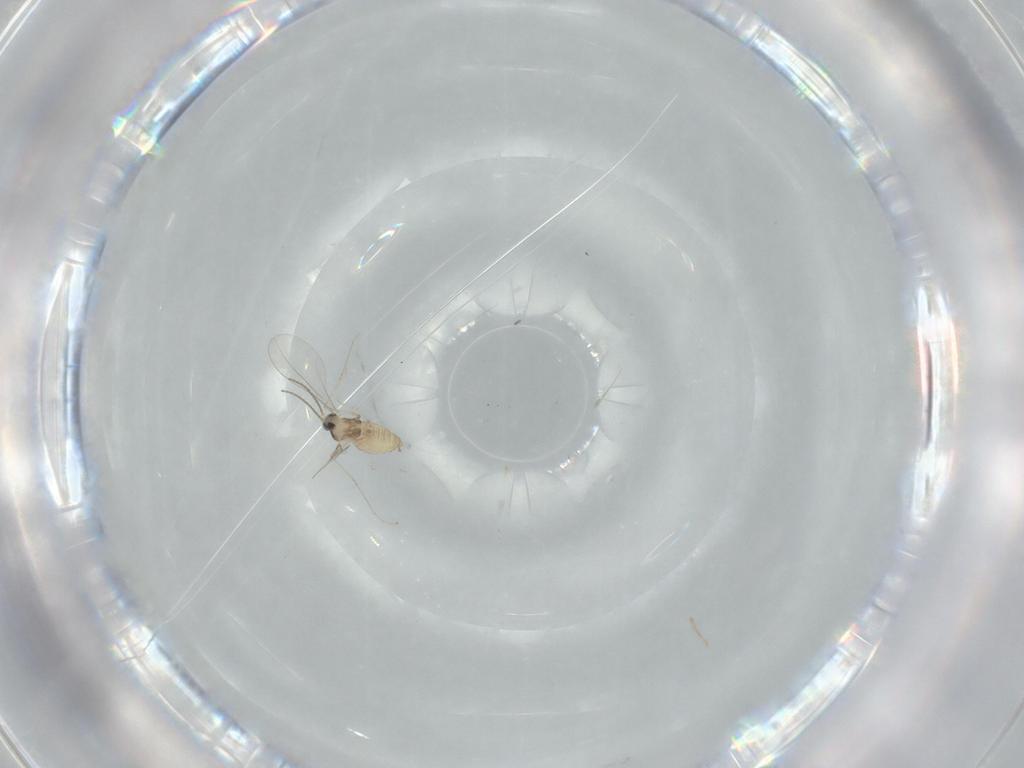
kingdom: Animalia
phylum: Arthropoda
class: Insecta
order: Diptera
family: Cecidomyiidae
